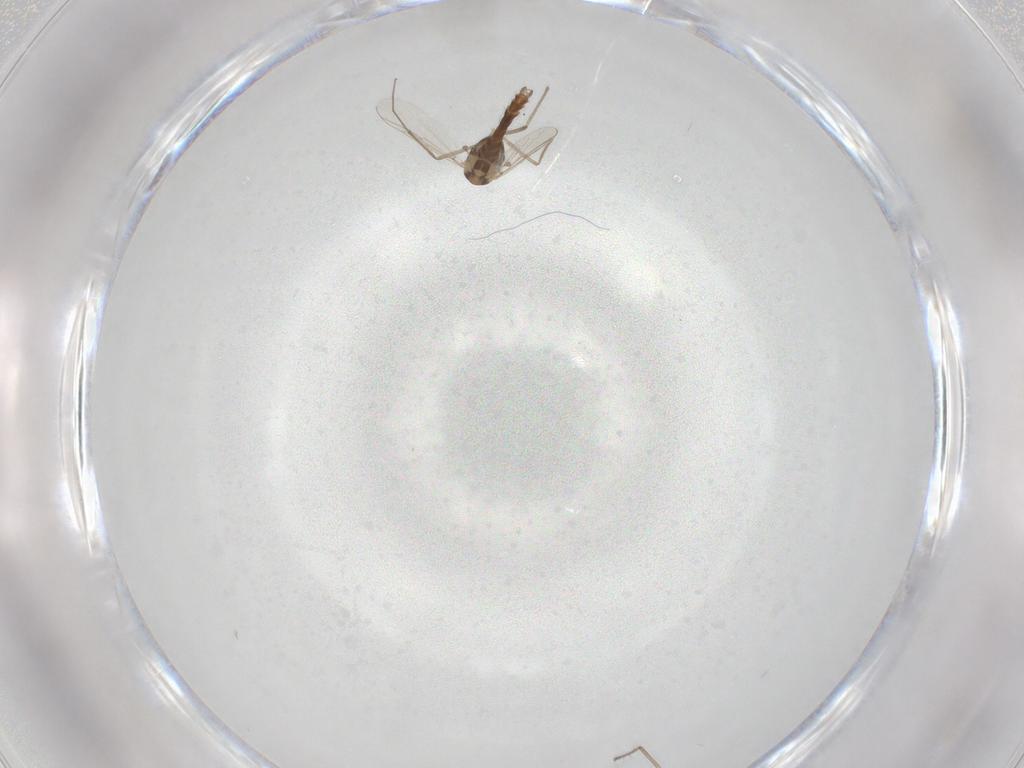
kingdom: Animalia
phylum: Arthropoda
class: Insecta
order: Diptera
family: Chironomidae
